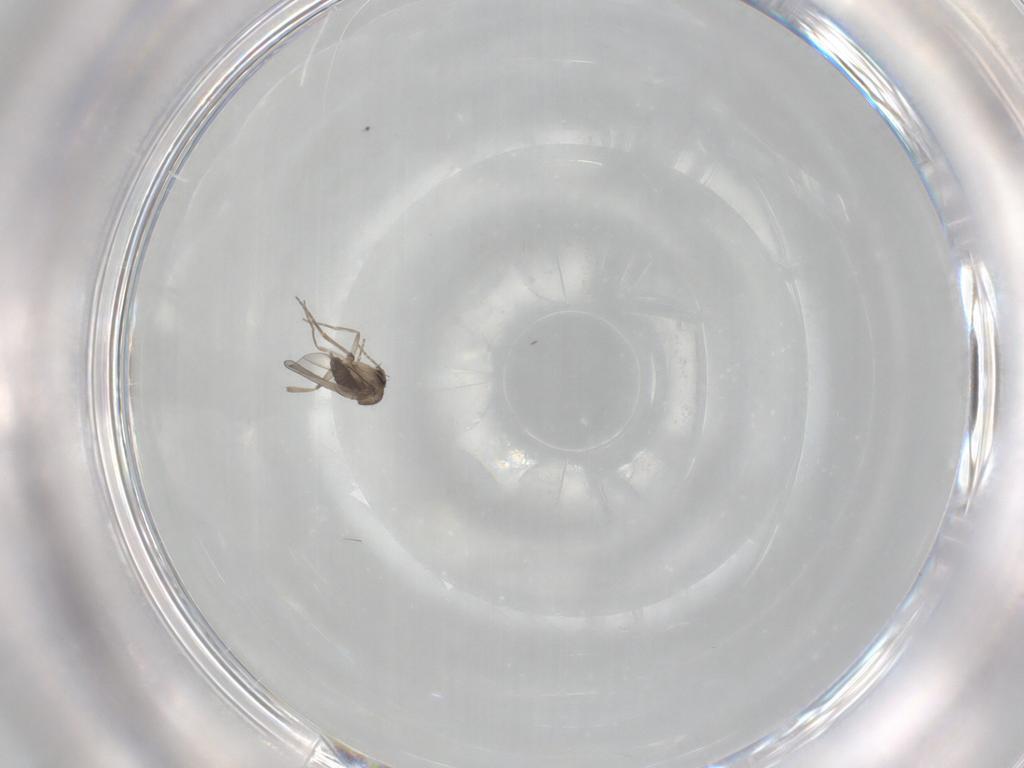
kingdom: Animalia
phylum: Arthropoda
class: Insecta
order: Diptera
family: Phoridae
